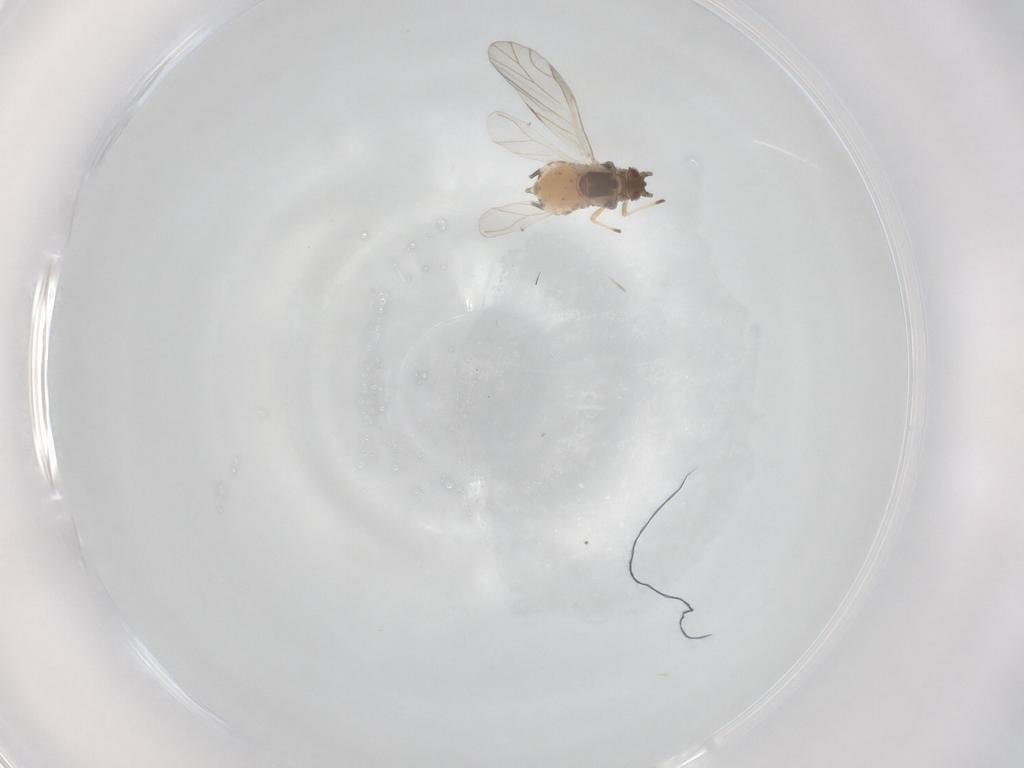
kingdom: Animalia
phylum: Arthropoda
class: Insecta
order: Hemiptera
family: Aphididae
